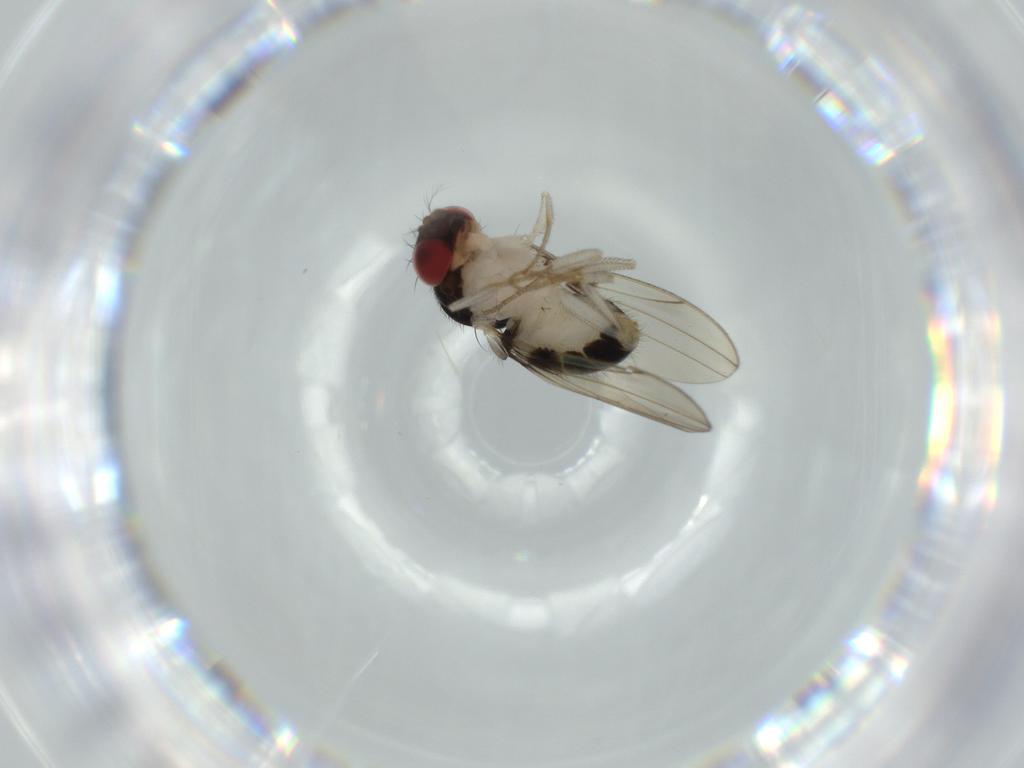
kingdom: Animalia
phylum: Arthropoda
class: Insecta
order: Diptera
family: Drosophilidae
